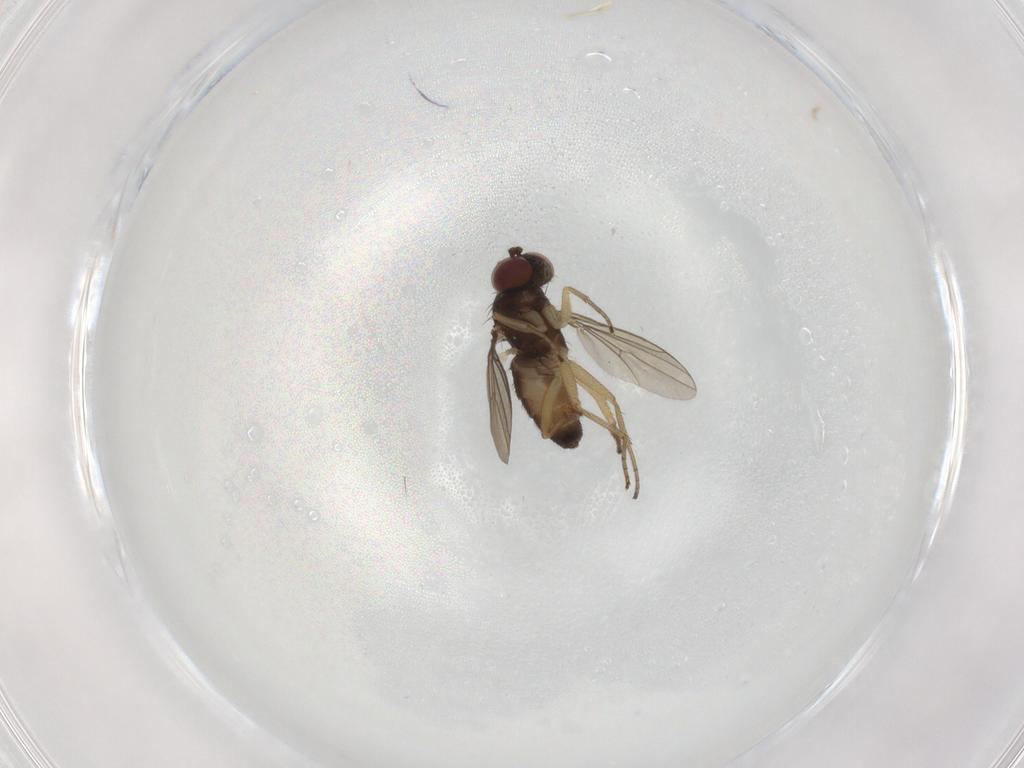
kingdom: Animalia
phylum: Arthropoda
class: Insecta
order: Diptera
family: Dolichopodidae
